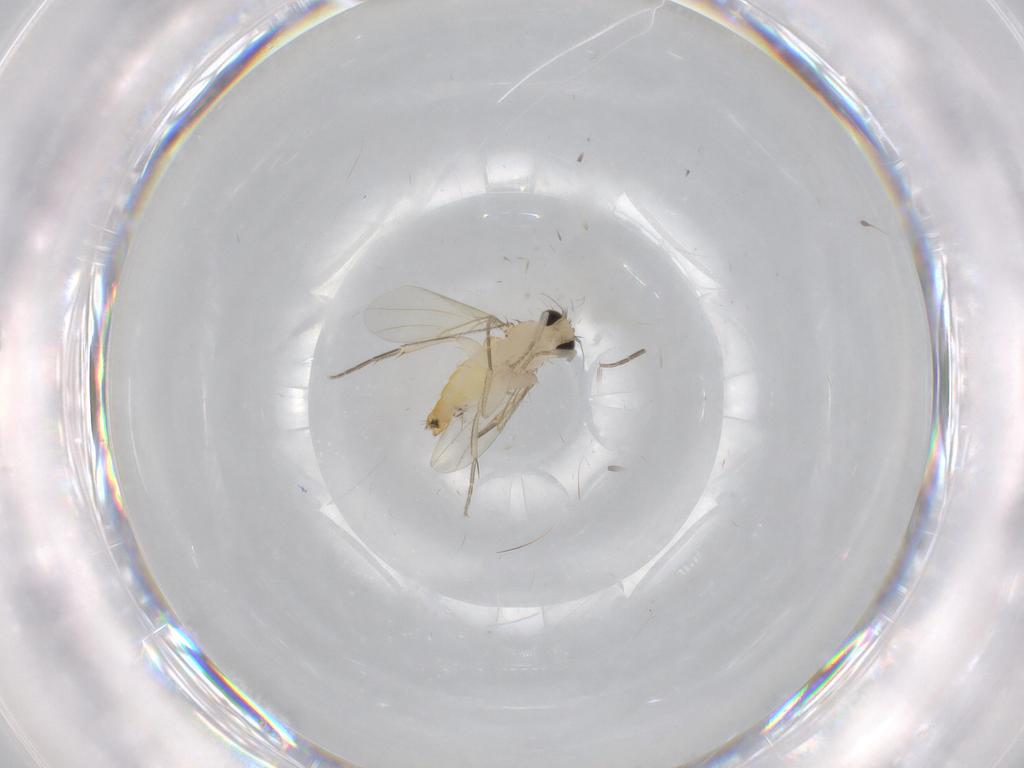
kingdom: Animalia
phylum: Arthropoda
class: Insecta
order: Diptera
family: Phoridae
